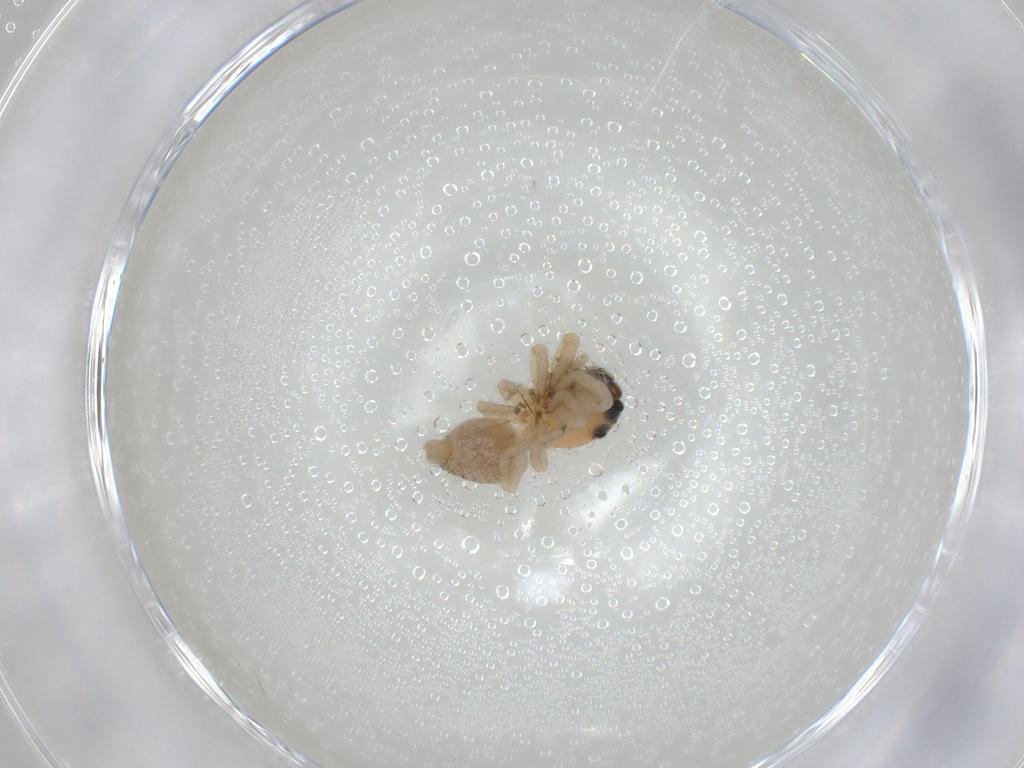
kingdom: Animalia
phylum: Arthropoda
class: Arachnida
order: Araneae
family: Salticidae
